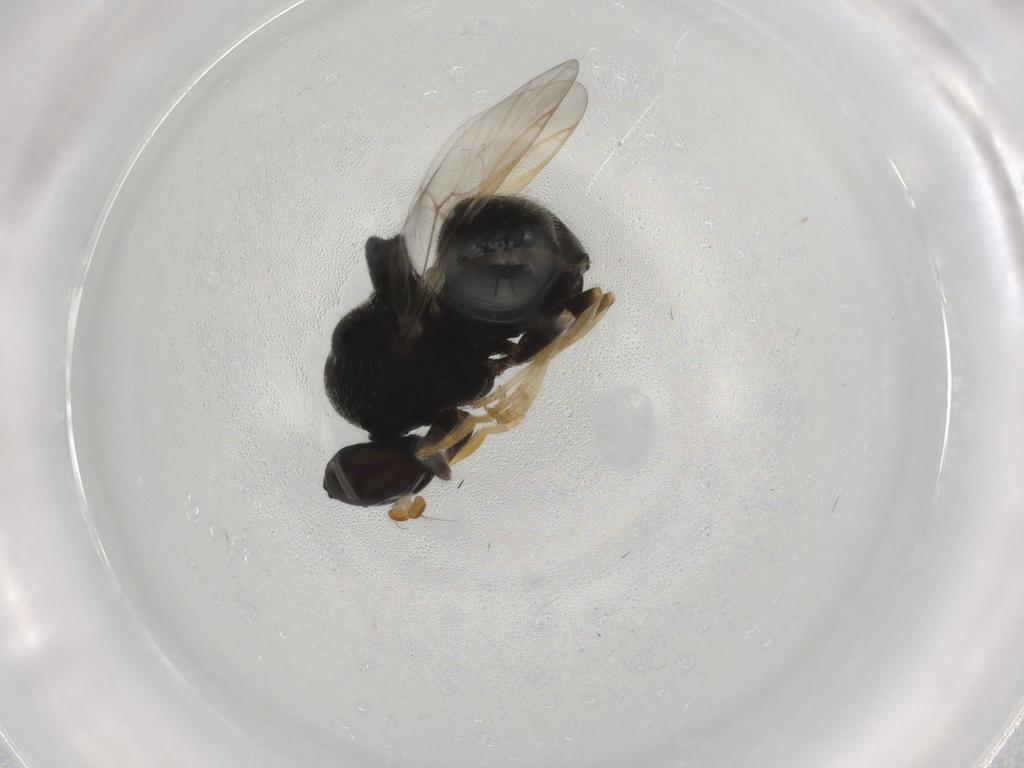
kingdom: Animalia
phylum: Arthropoda
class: Insecta
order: Diptera
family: Stratiomyidae
